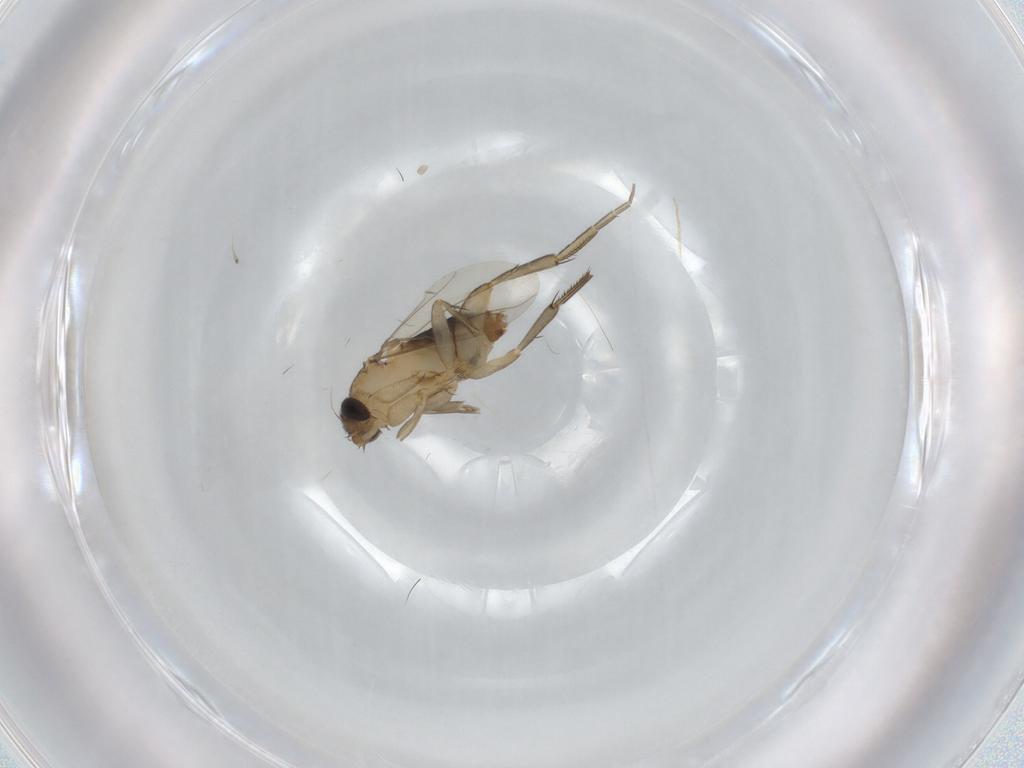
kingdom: Animalia
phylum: Arthropoda
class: Insecta
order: Diptera
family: Phoridae
